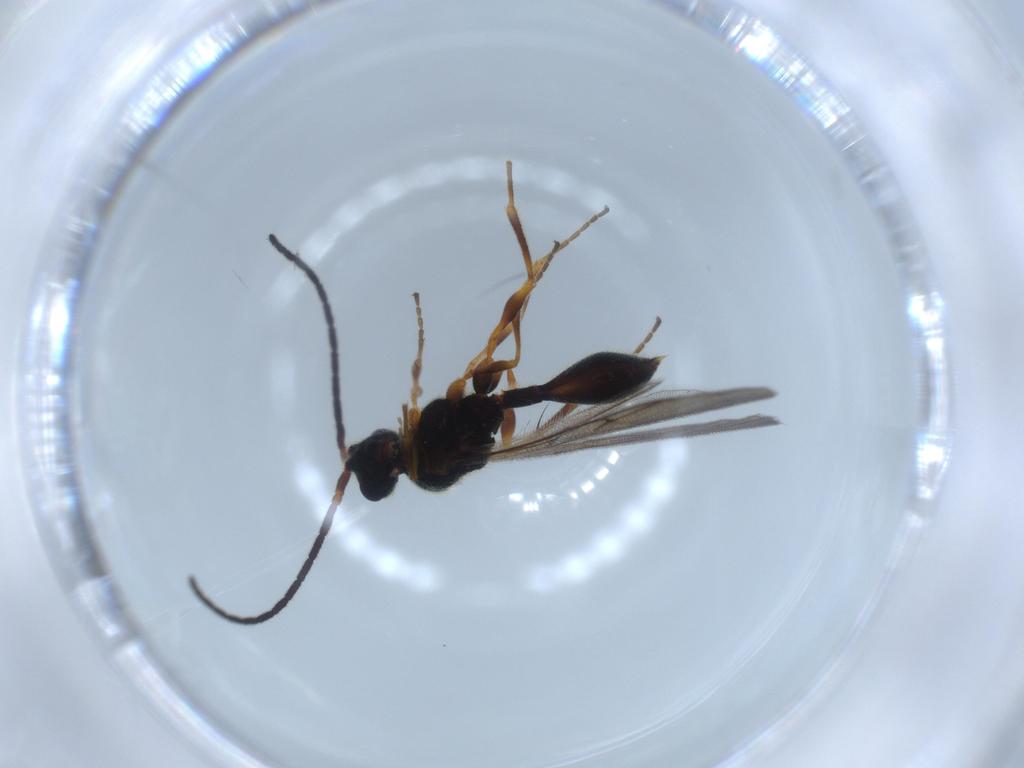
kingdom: Animalia
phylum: Arthropoda
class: Insecta
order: Hymenoptera
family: Diapriidae
